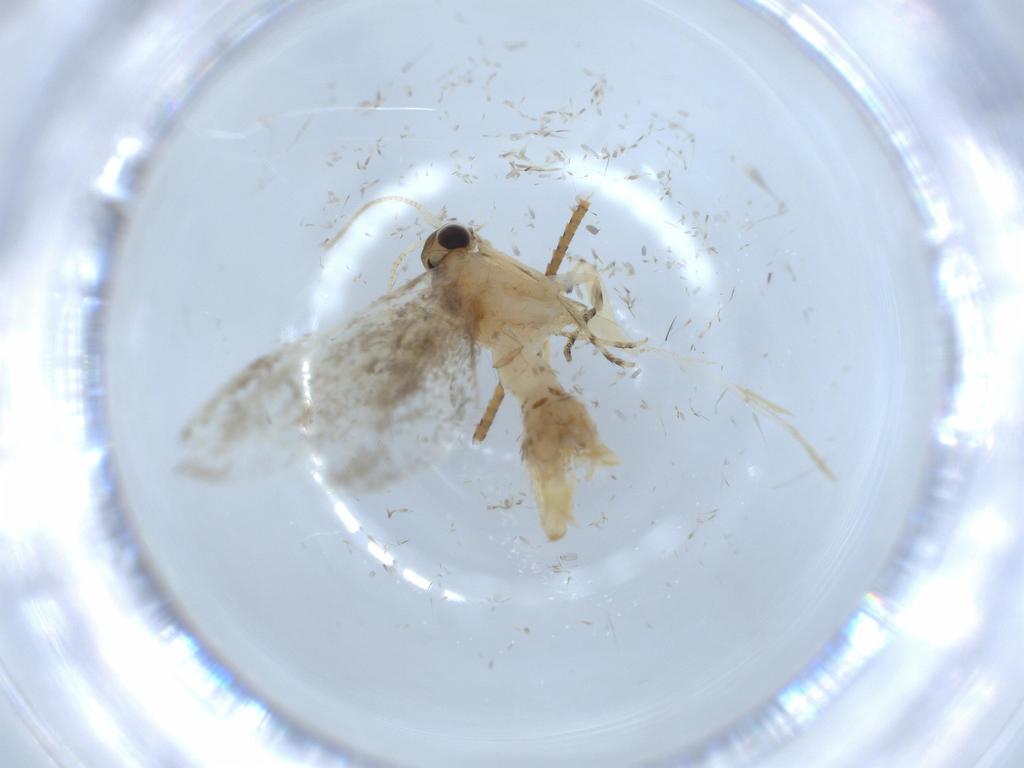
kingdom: Animalia
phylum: Arthropoda
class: Insecta
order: Lepidoptera
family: Tineidae
